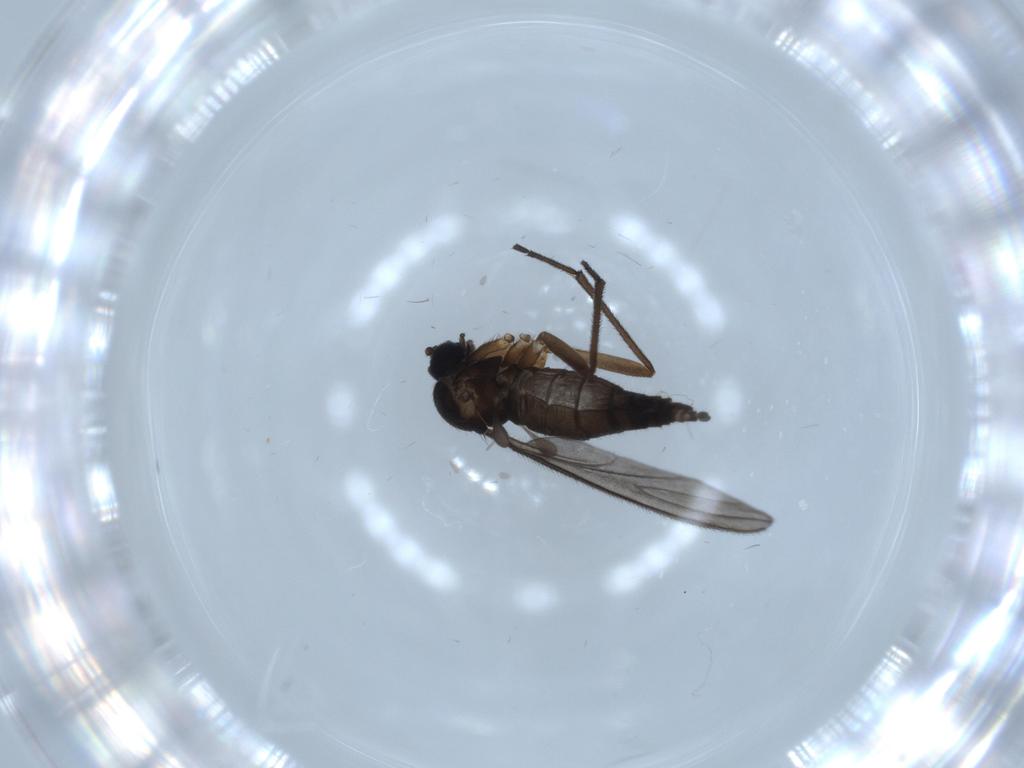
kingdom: Animalia
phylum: Arthropoda
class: Insecta
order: Diptera
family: Sciaridae
